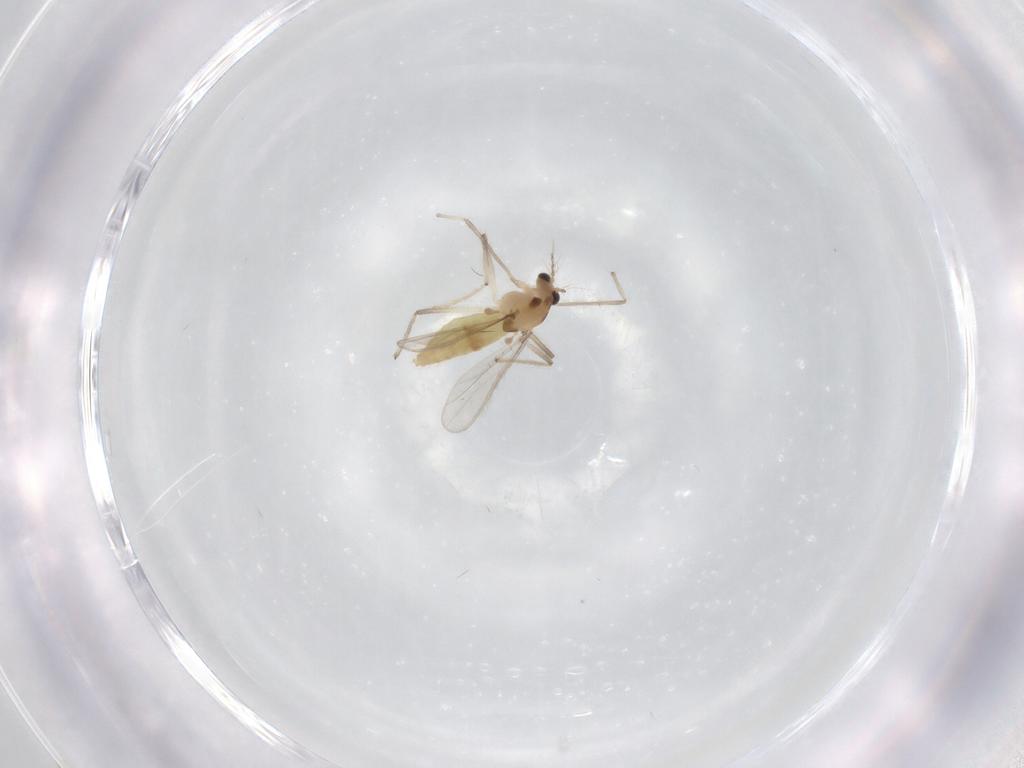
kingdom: Animalia
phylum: Arthropoda
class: Insecta
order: Diptera
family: Chironomidae
